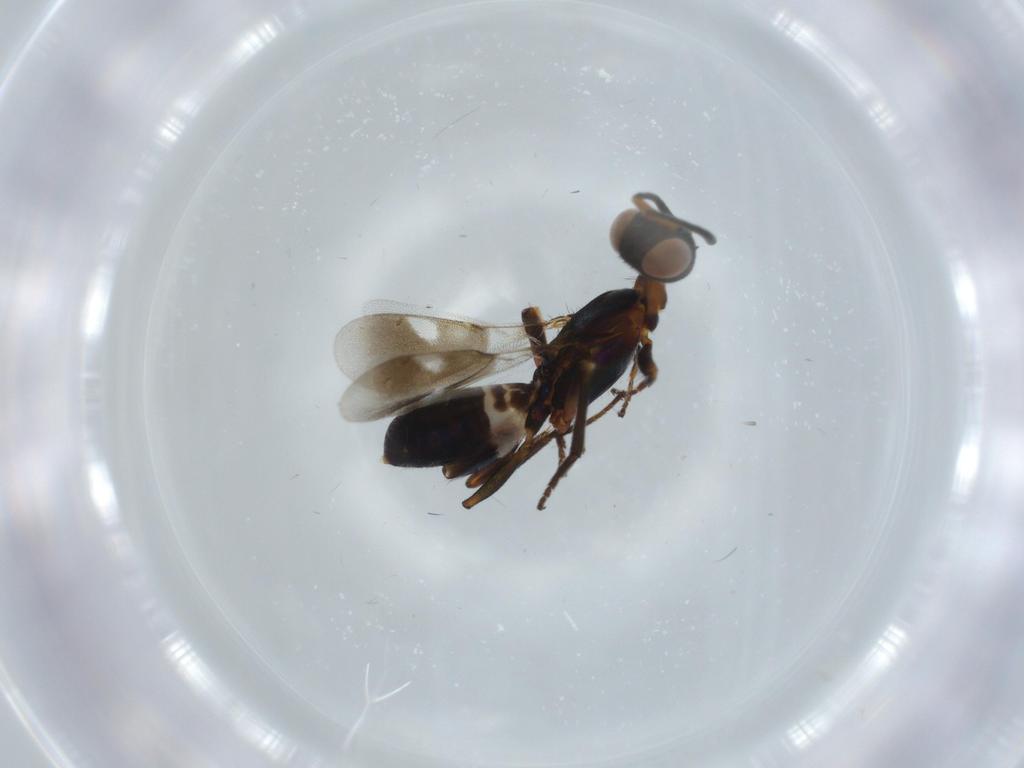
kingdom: Animalia
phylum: Arthropoda
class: Insecta
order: Hymenoptera
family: Eupelmidae
